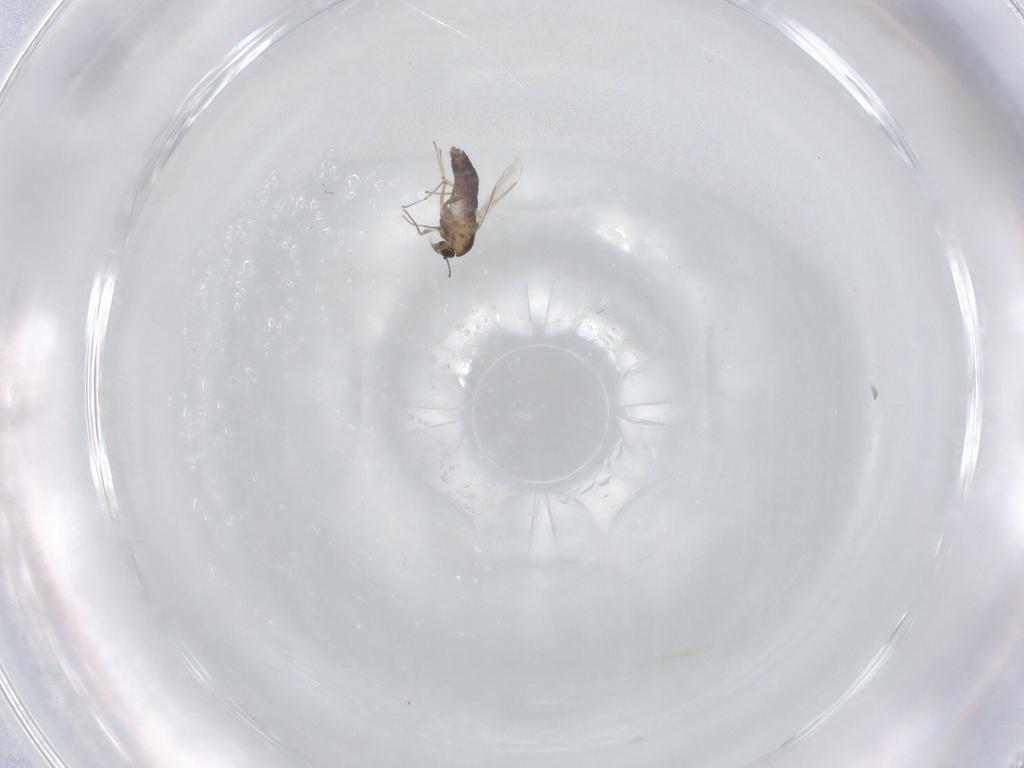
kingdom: Animalia
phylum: Arthropoda
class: Insecta
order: Diptera
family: Chironomidae
